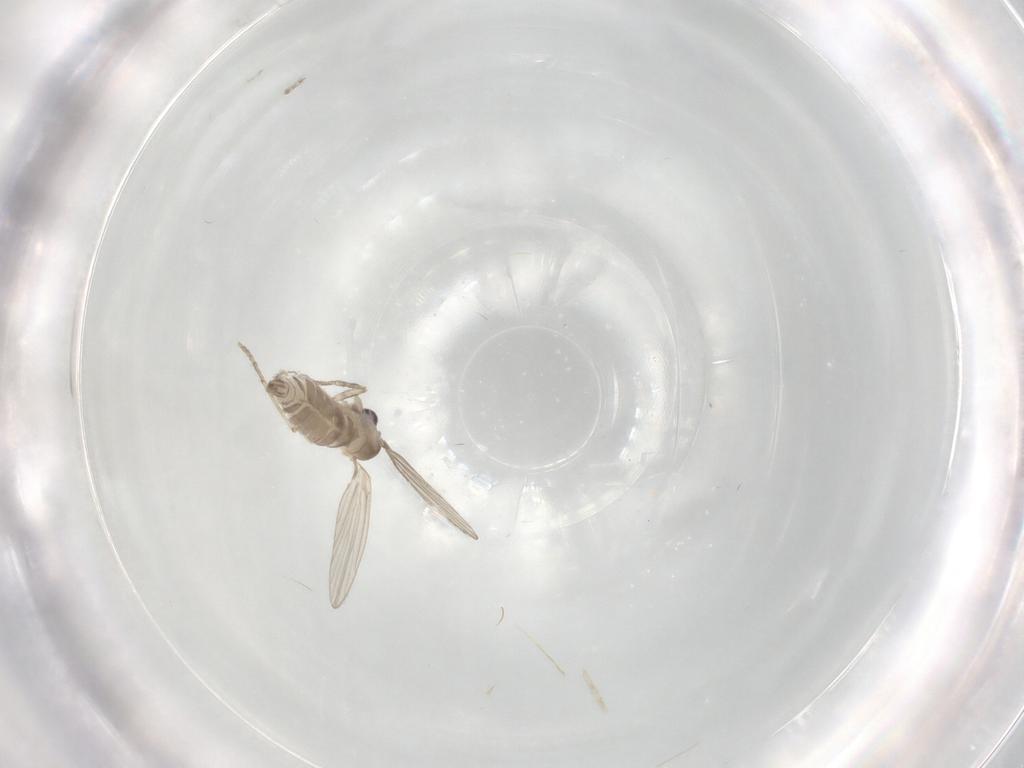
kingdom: Animalia
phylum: Arthropoda
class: Insecta
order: Diptera
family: Psychodidae
